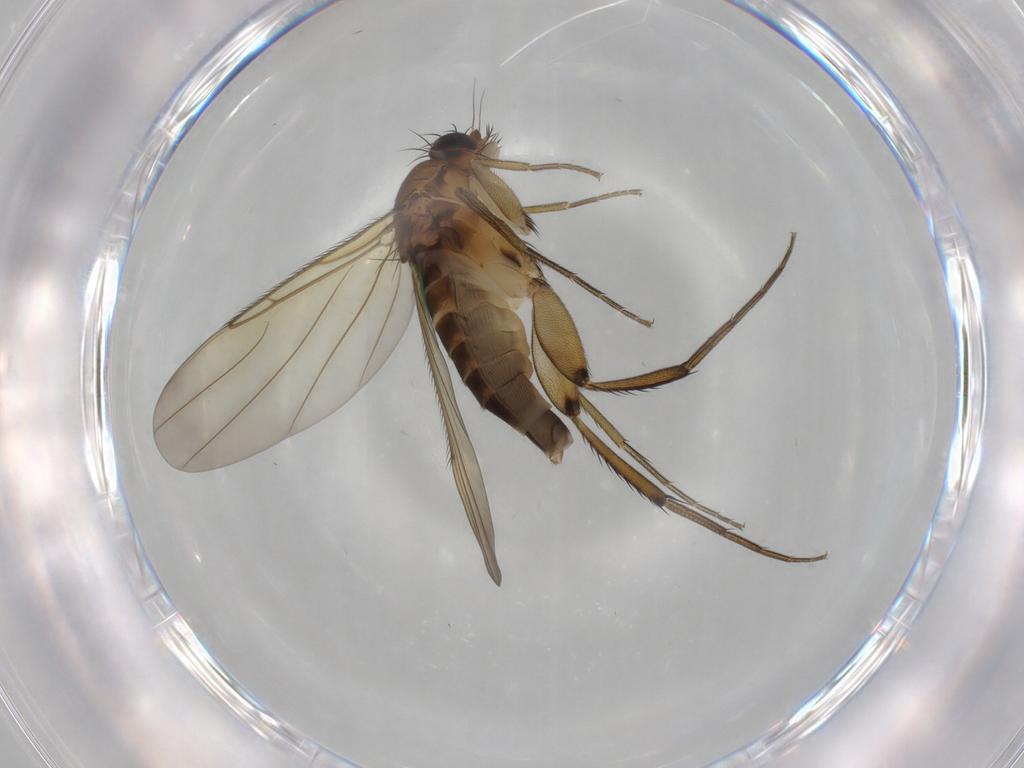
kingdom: Animalia
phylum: Arthropoda
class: Insecta
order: Diptera
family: Phoridae
